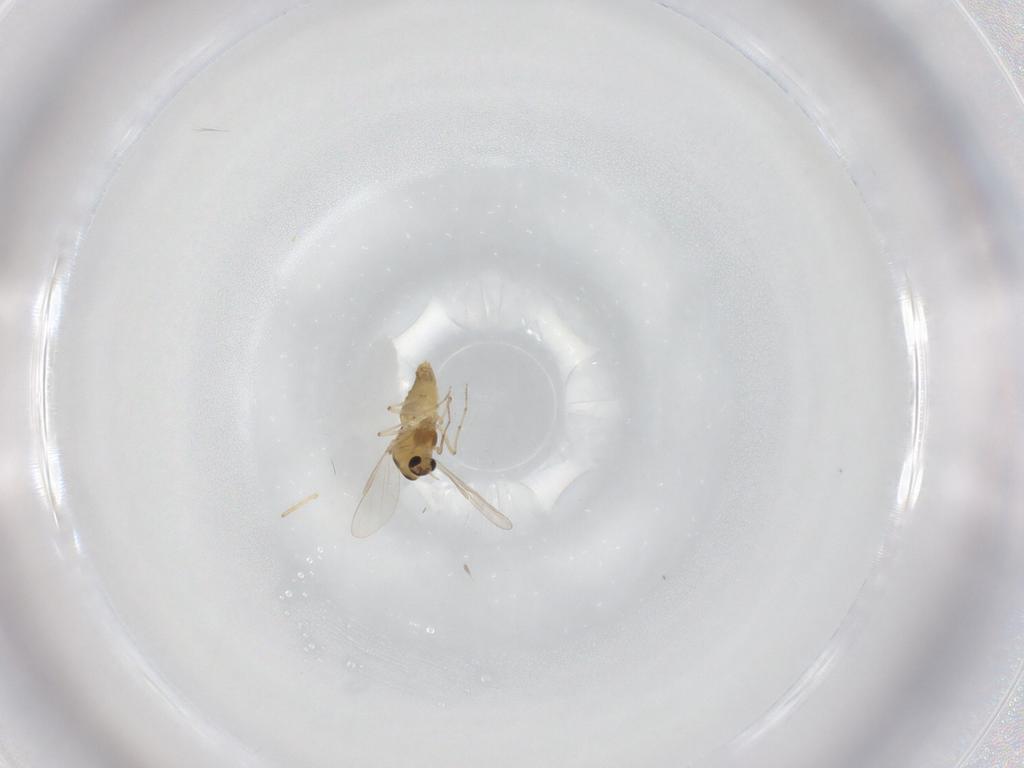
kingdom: Animalia
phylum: Arthropoda
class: Insecta
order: Diptera
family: Chironomidae
